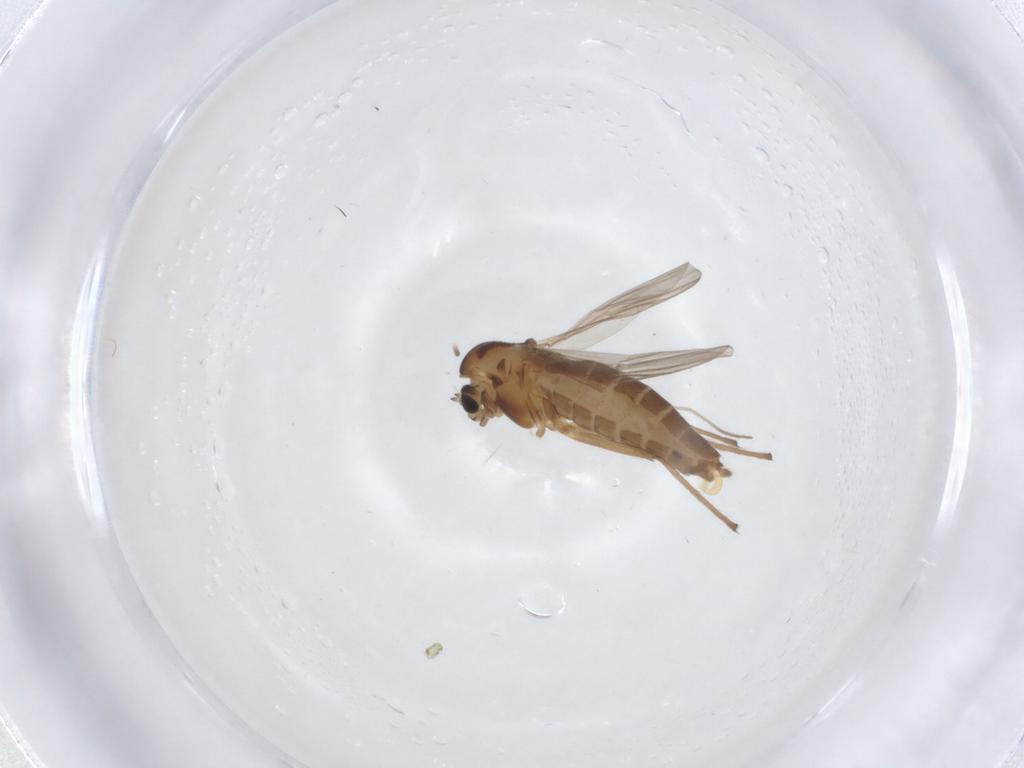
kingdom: Animalia
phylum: Arthropoda
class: Insecta
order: Diptera
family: Chironomidae
